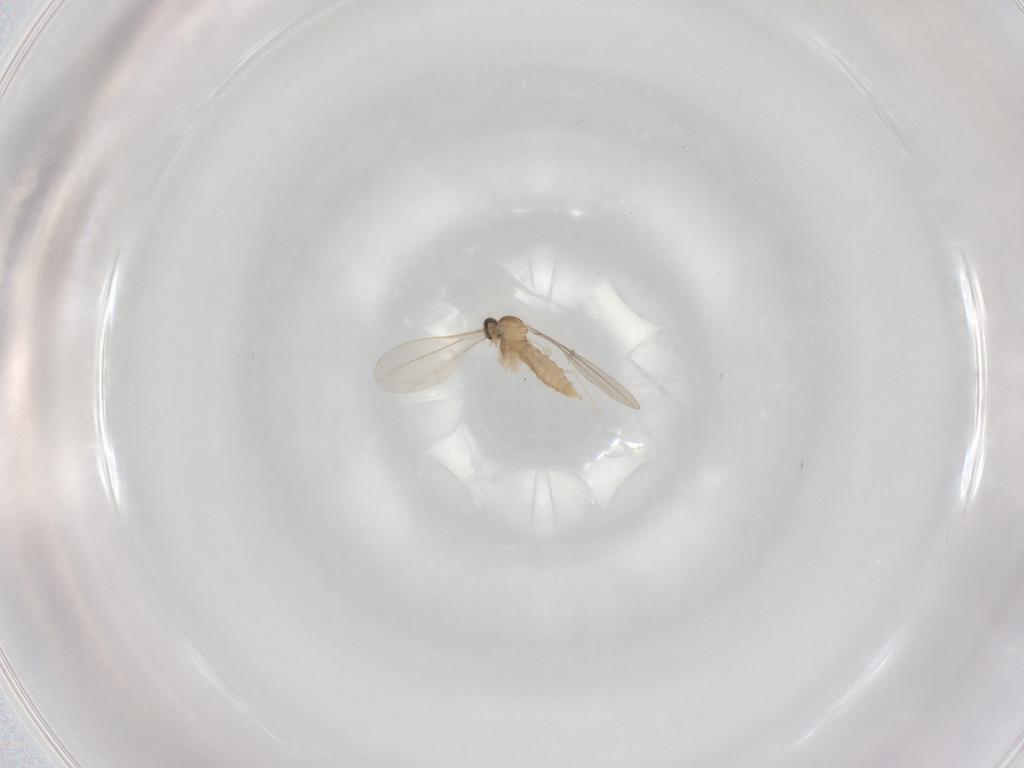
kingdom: Animalia
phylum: Arthropoda
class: Insecta
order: Diptera
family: Cecidomyiidae
